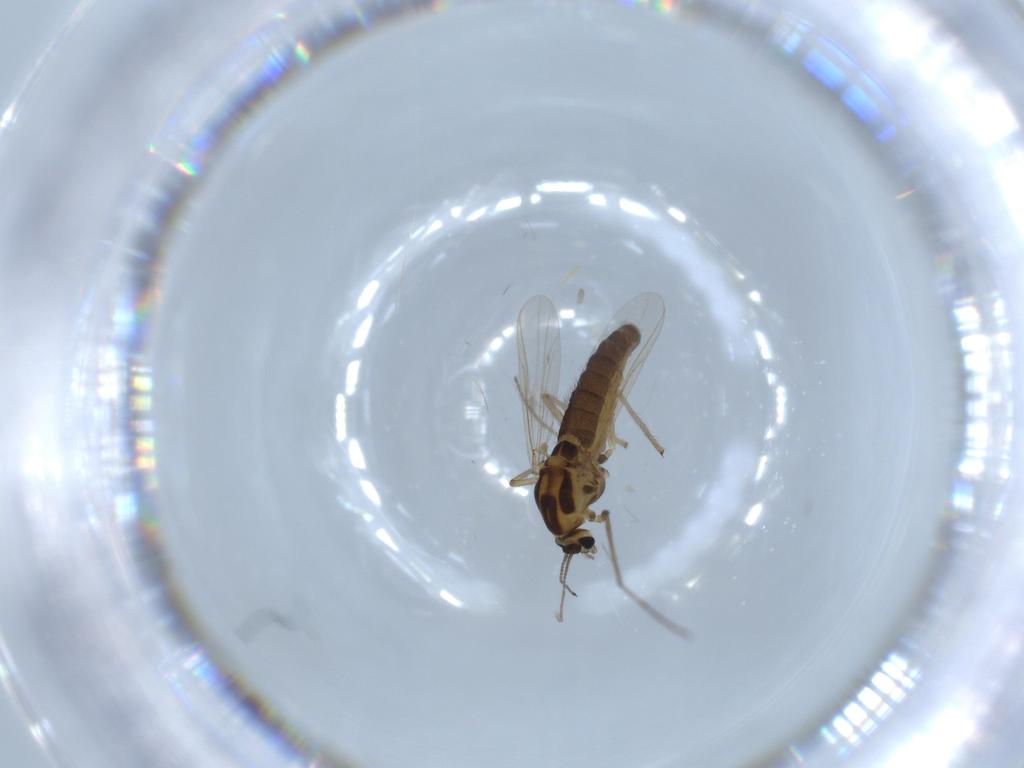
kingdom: Animalia
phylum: Arthropoda
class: Insecta
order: Diptera
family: Chironomidae
